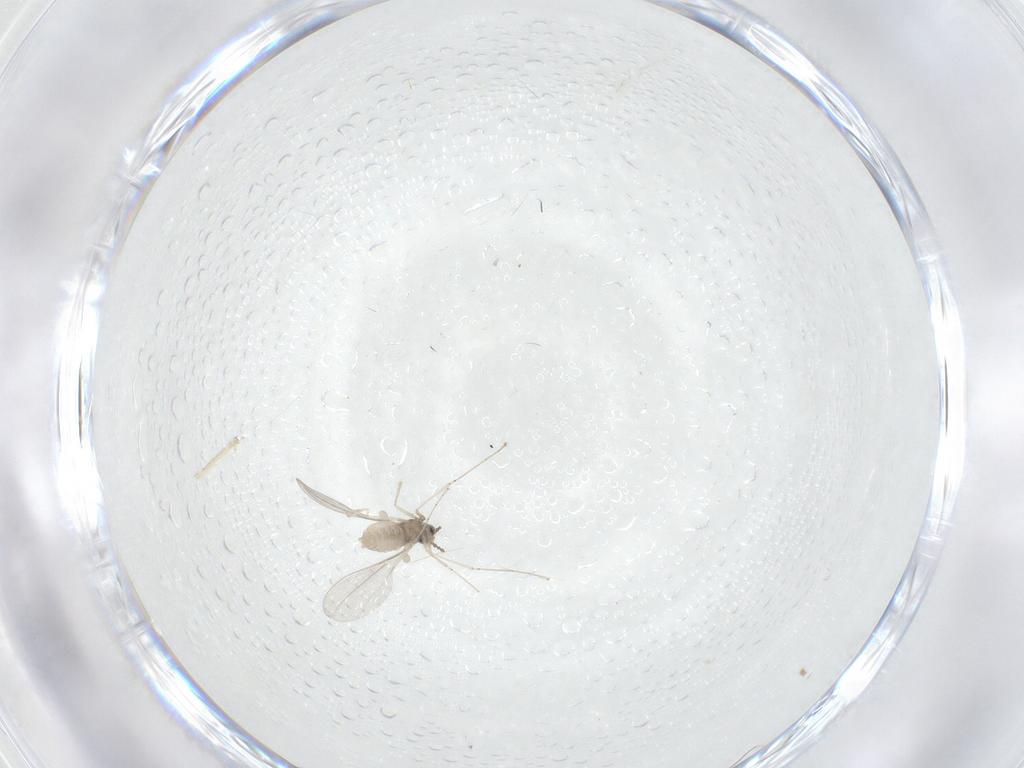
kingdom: Animalia
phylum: Arthropoda
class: Insecta
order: Diptera
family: Cecidomyiidae
